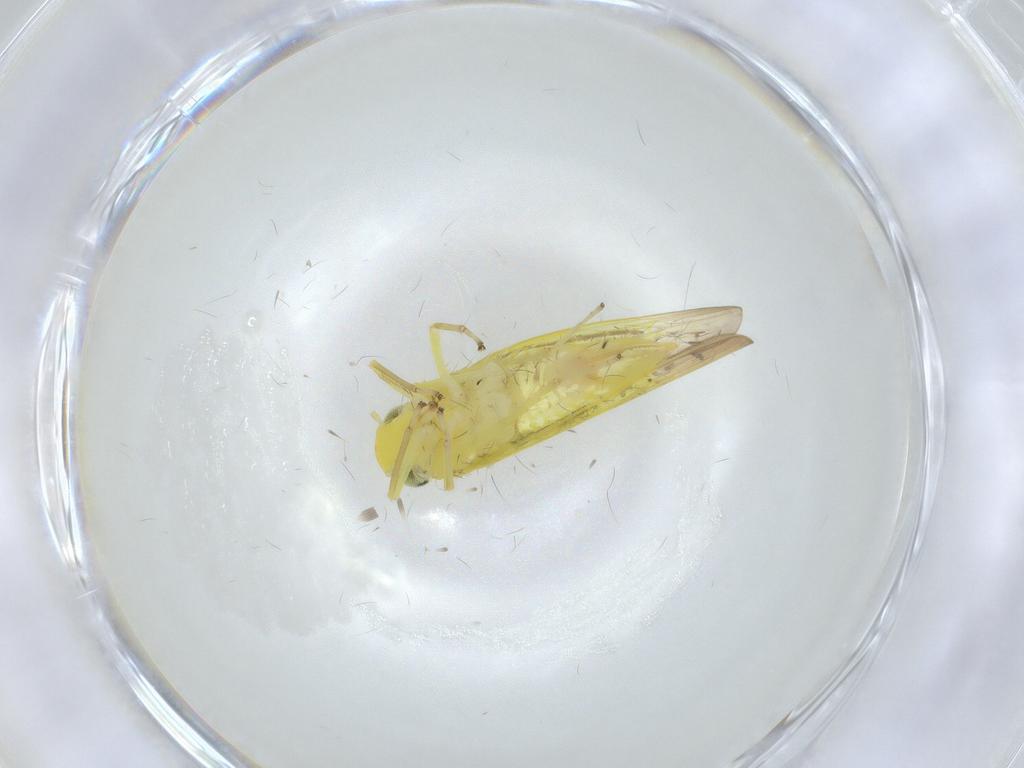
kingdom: Animalia
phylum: Arthropoda
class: Insecta
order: Hemiptera
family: Cicadellidae
